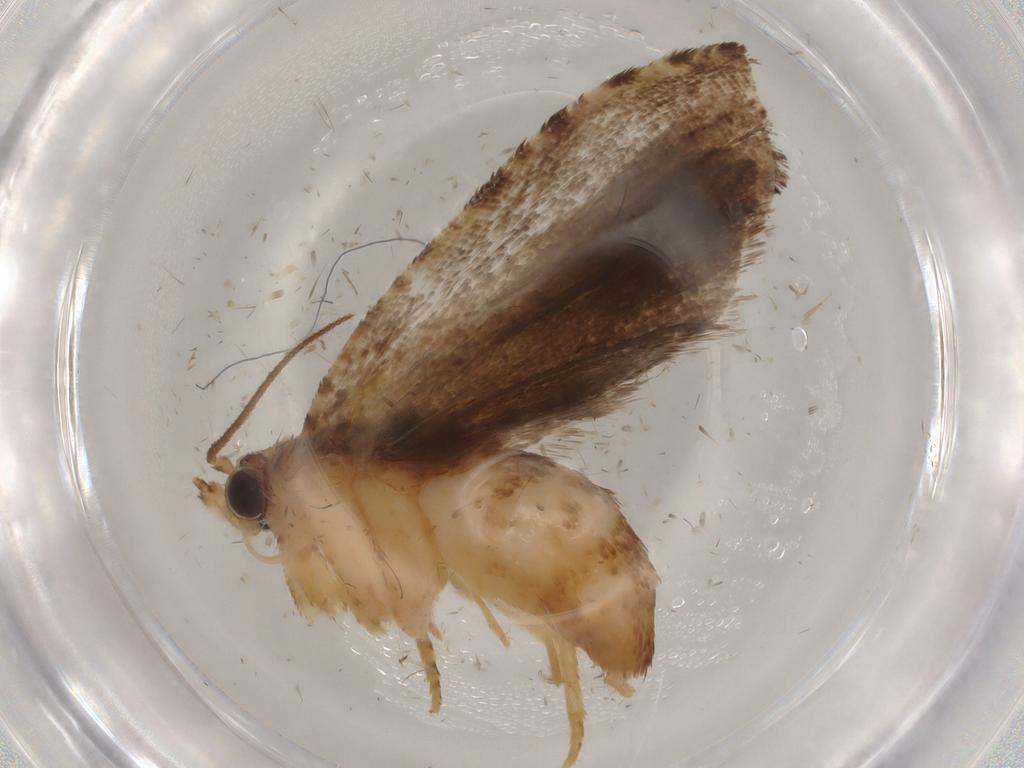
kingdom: Animalia
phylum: Arthropoda
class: Insecta
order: Lepidoptera
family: Tortricidae
